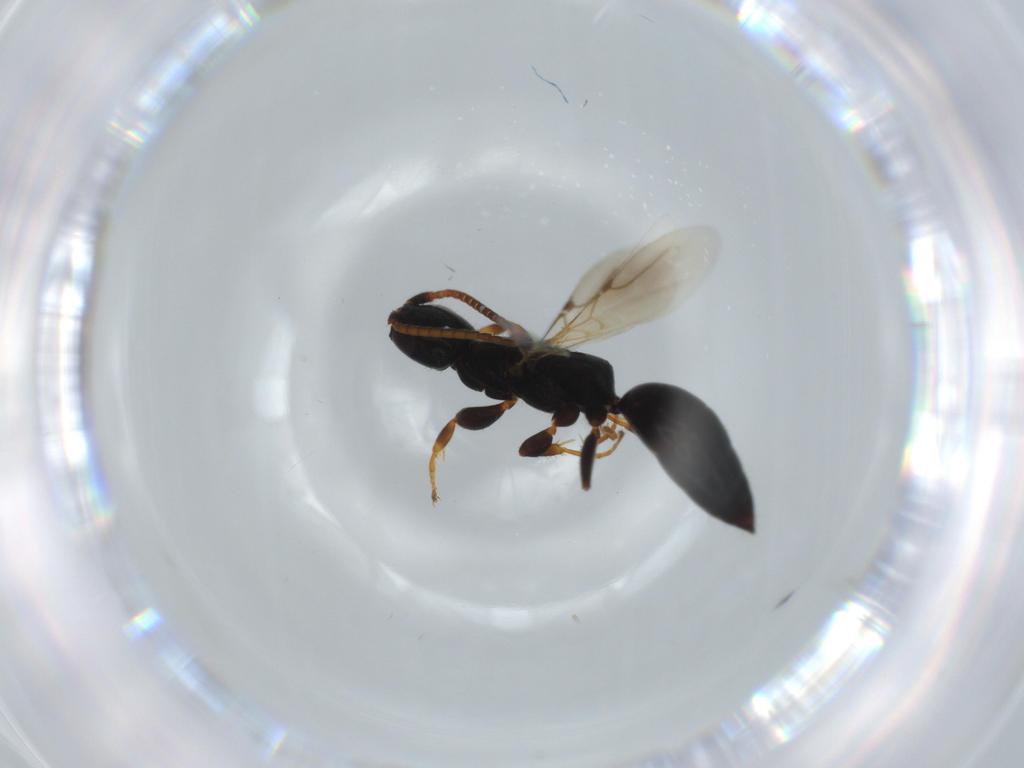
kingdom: Animalia
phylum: Arthropoda
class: Insecta
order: Hymenoptera
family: Bethylidae
